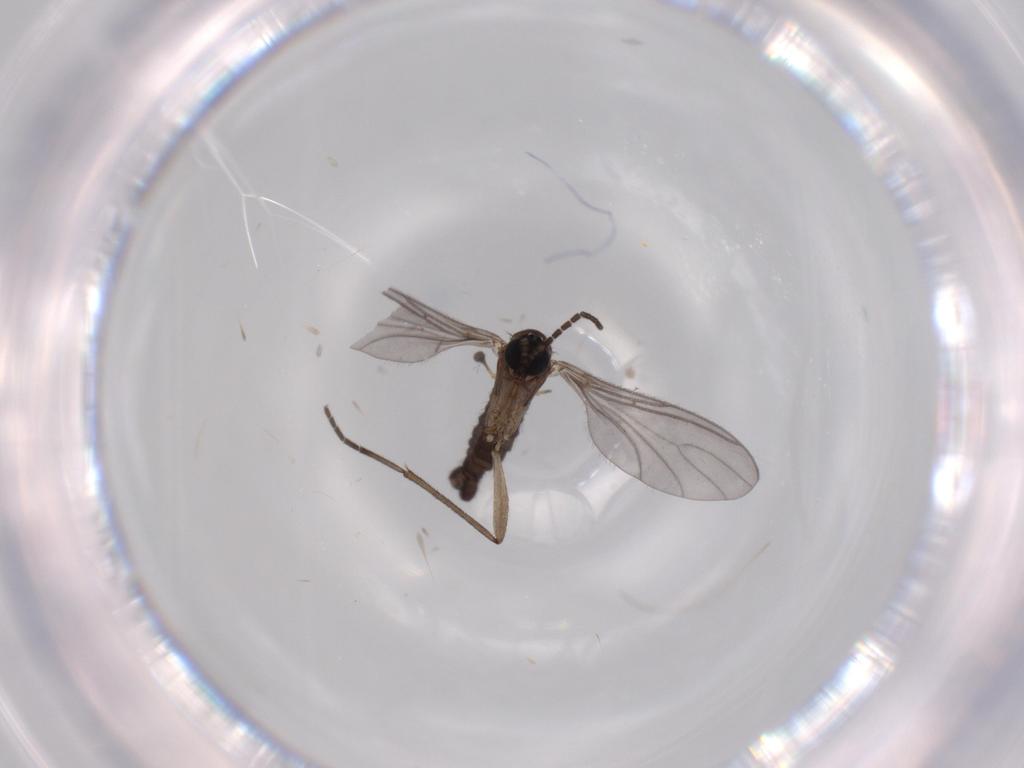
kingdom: Animalia
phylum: Arthropoda
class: Insecta
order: Diptera
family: Sciaridae
